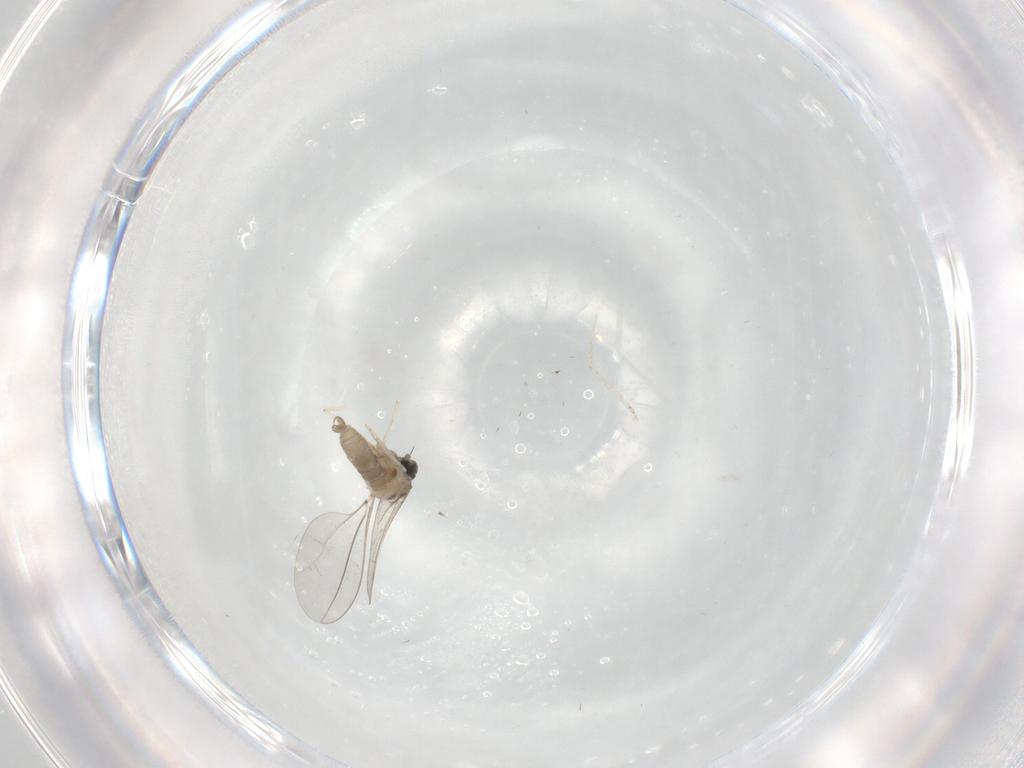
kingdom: Animalia
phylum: Arthropoda
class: Insecta
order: Diptera
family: Cecidomyiidae
